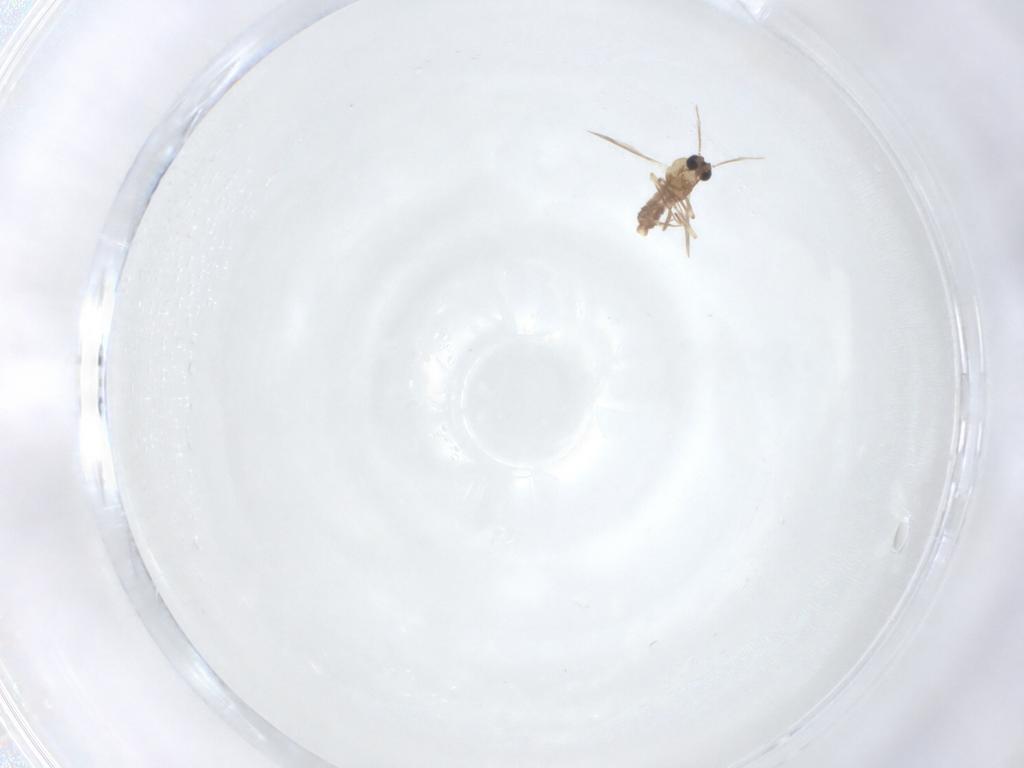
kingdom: Animalia
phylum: Arthropoda
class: Insecta
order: Diptera
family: Ceratopogonidae
